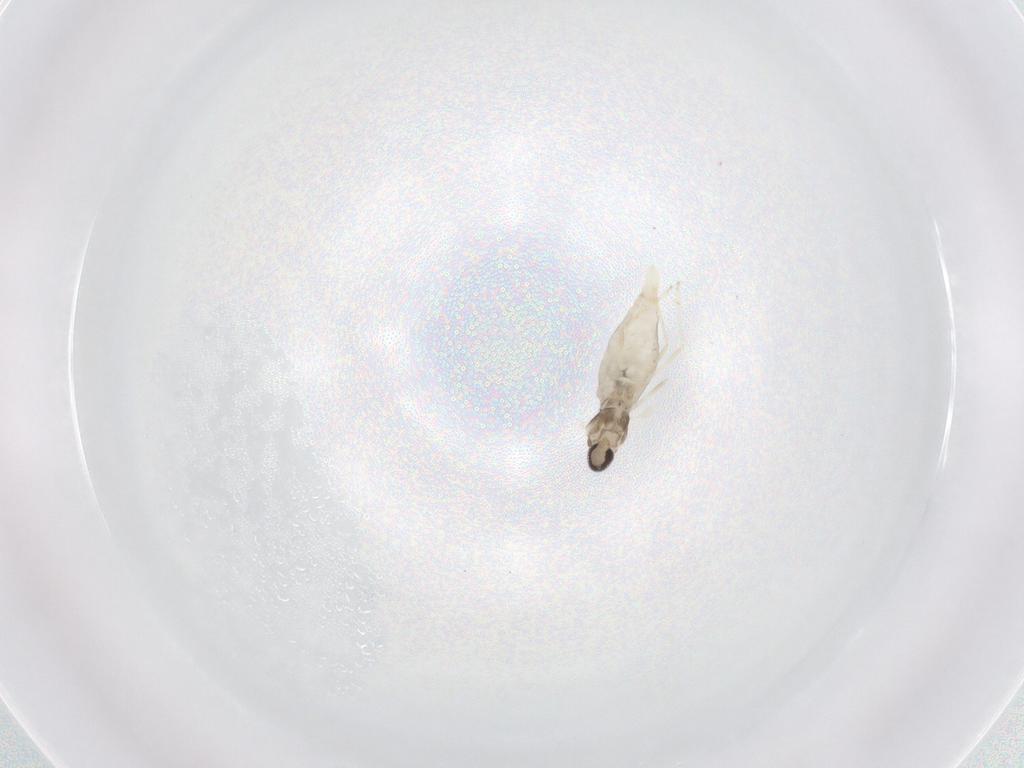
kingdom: Animalia
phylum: Arthropoda
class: Insecta
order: Diptera
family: Cecidomyiidae
